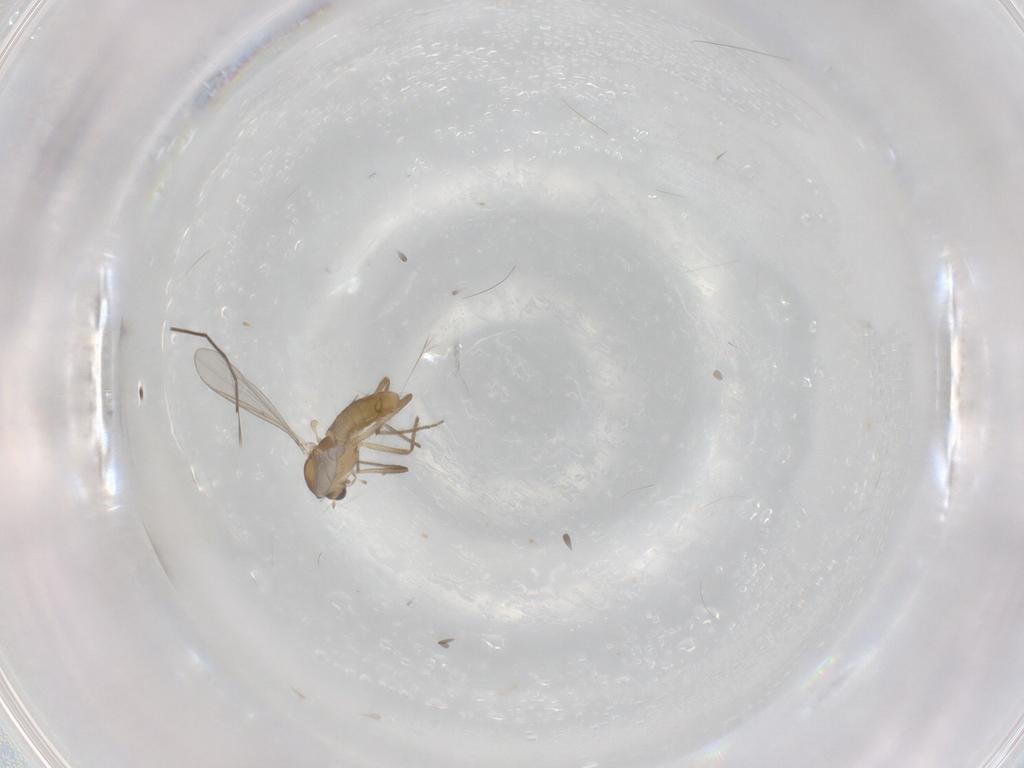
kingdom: Animalia
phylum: Arthropoda
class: Insecta
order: Diptera
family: Chironomidae
